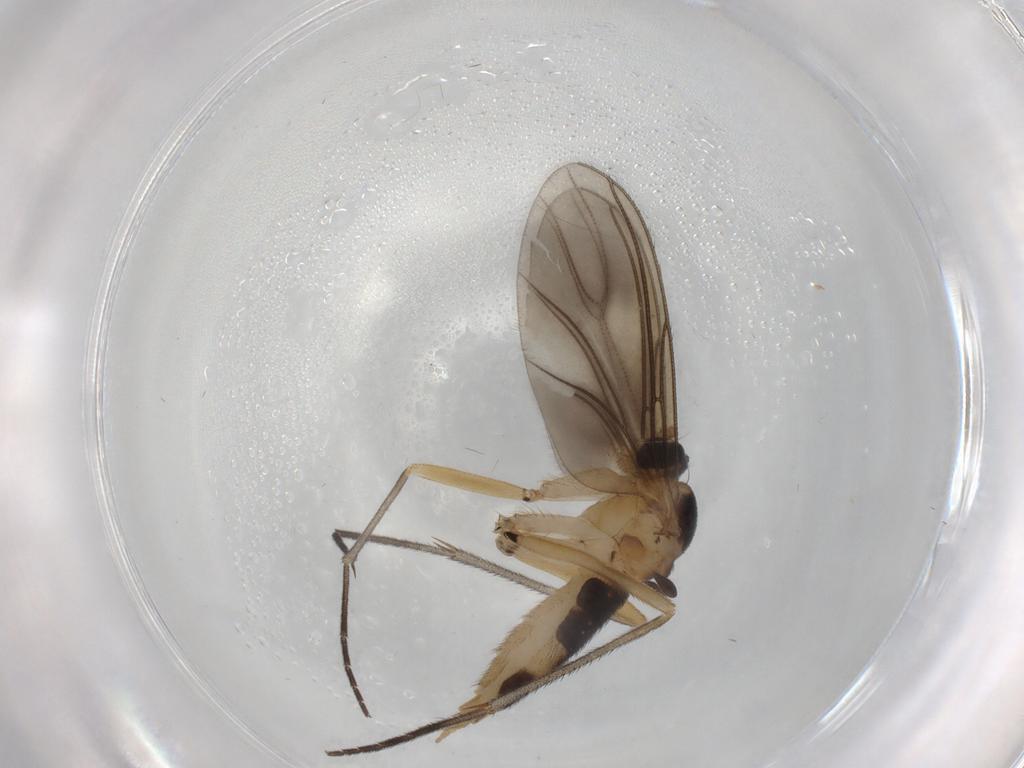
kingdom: Animalia
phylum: Arthropoda
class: Insecta
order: Diptera
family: Sciaridae
